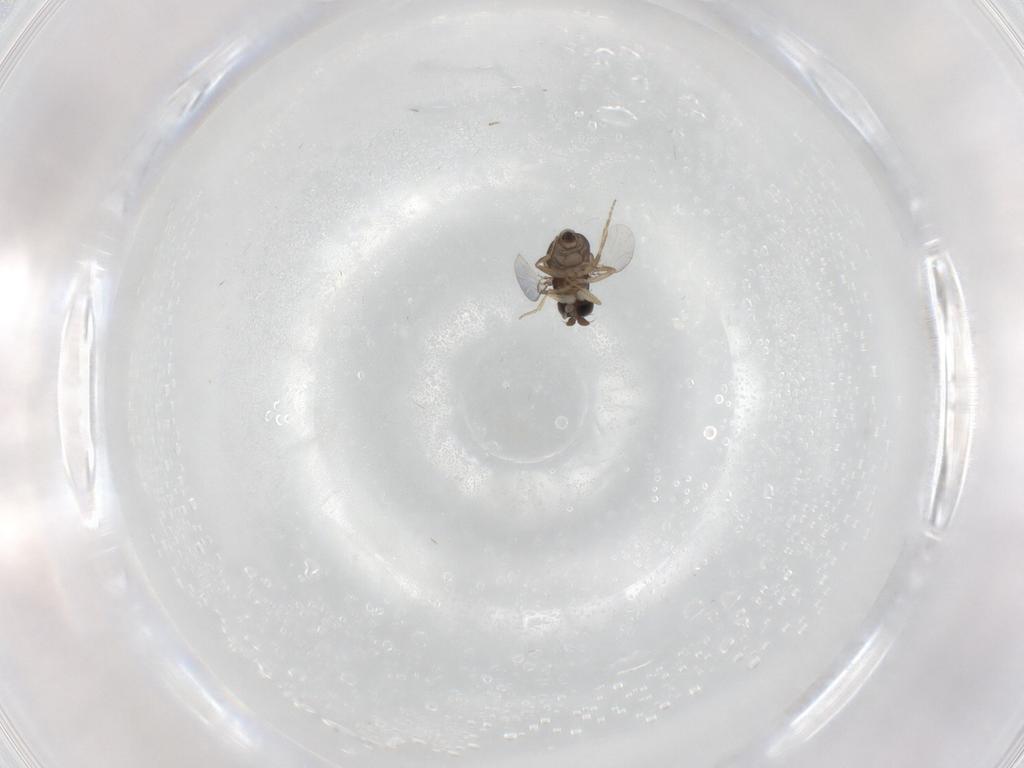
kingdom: Animalia
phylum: Arthropoda
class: Insecta
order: Diptera
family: Phoridae
